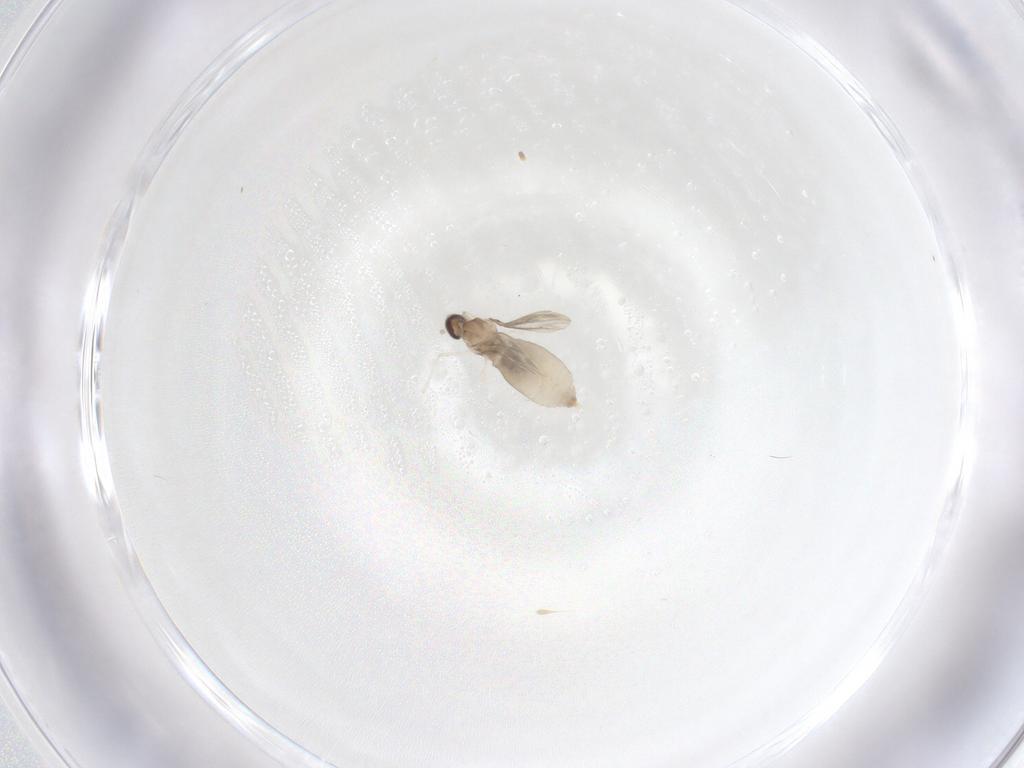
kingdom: Animalia
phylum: Arthropoda
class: Insecta
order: Diptera
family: Cecidomyiidae
